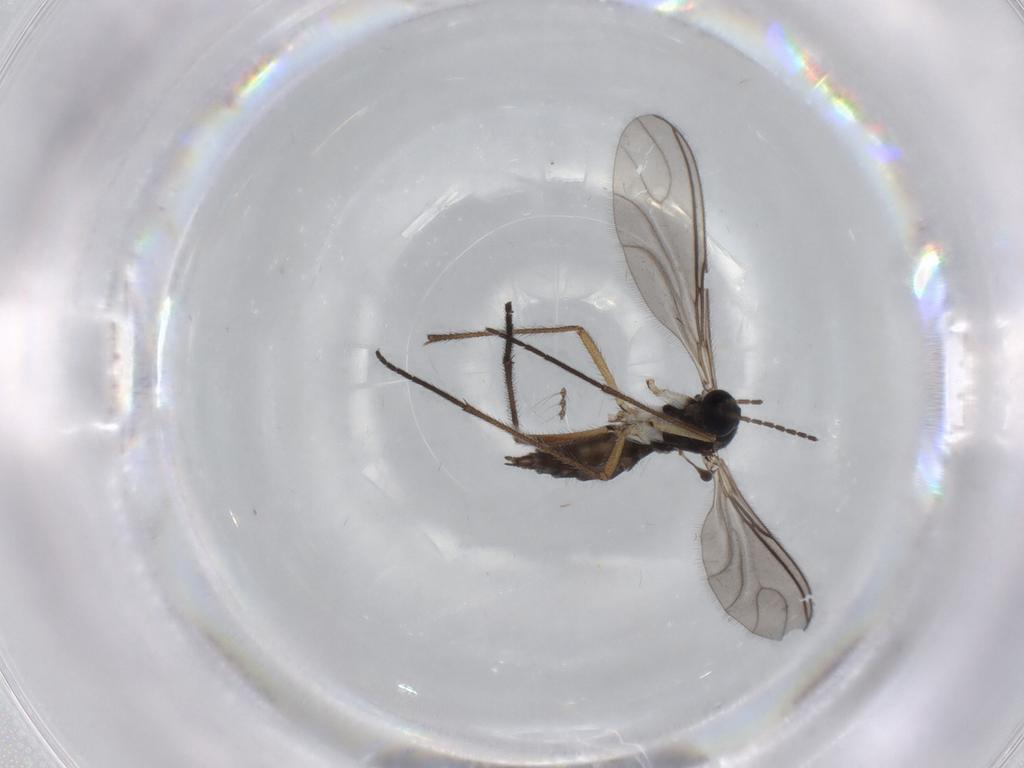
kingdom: Animalia
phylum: Arthropoda
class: Insecta
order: Diptera
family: Sciaridae
